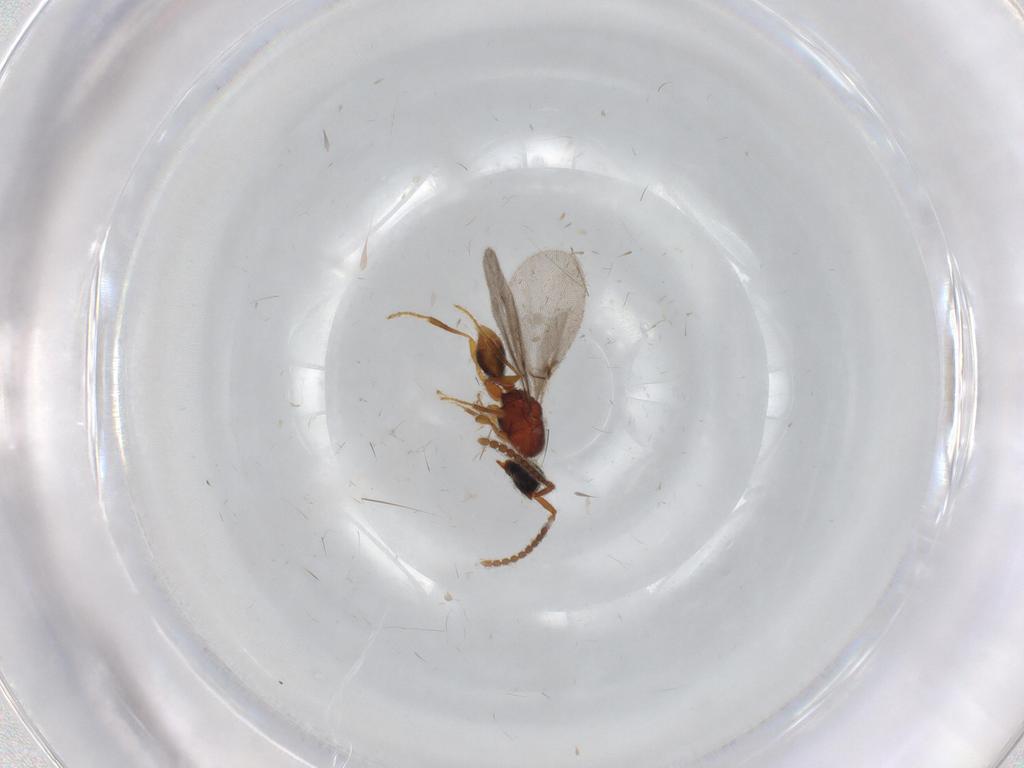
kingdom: Animalia
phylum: Arthropoda
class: Insecta
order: Hymenoptera
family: Diapriidae
